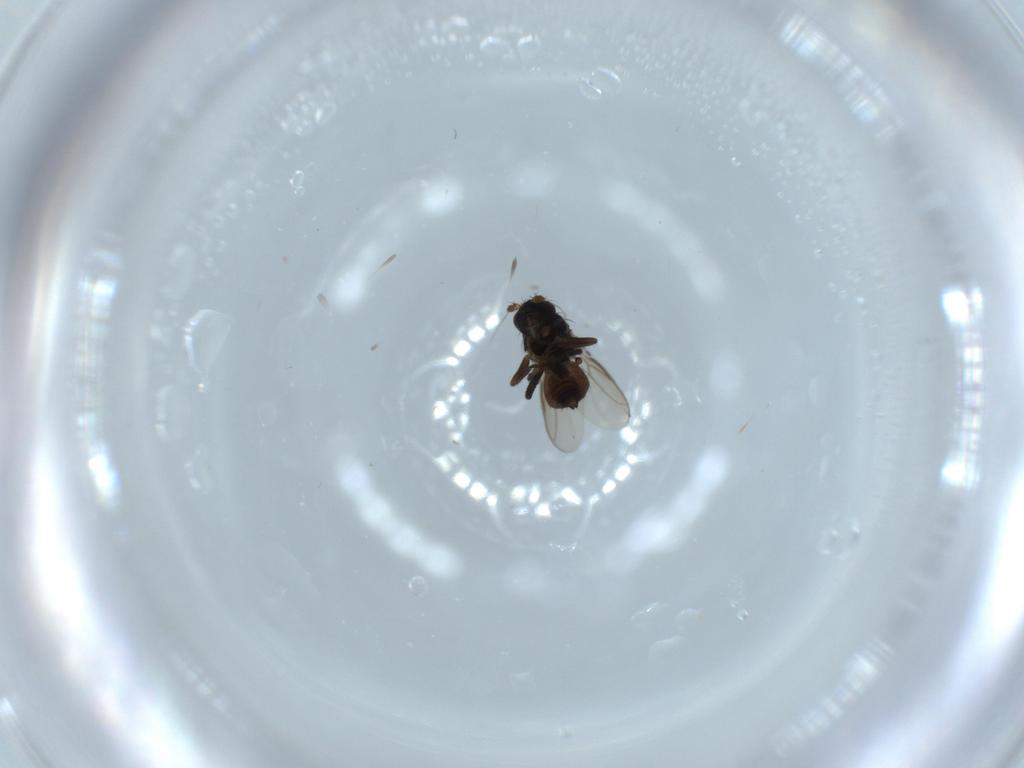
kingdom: Animalia
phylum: Arthropoda
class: Insecta
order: Diptera
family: Sphaeroceridae
